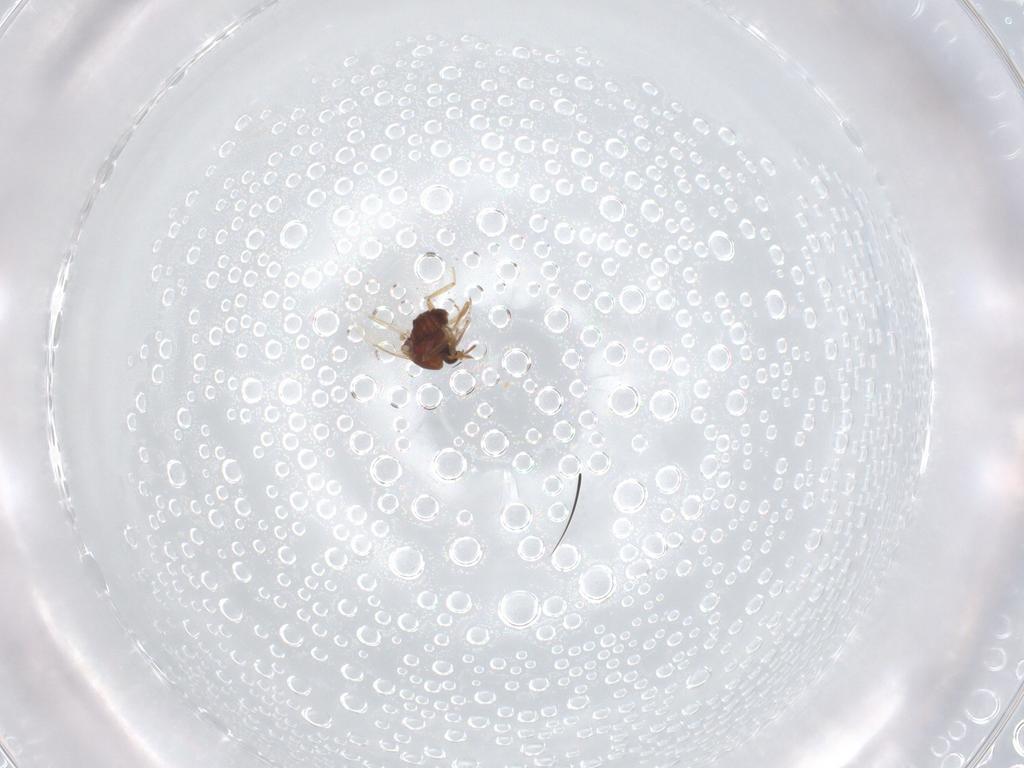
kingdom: Animalia
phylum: Arthropoda
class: Insecta
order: Diptera
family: Ceratopogonidae
